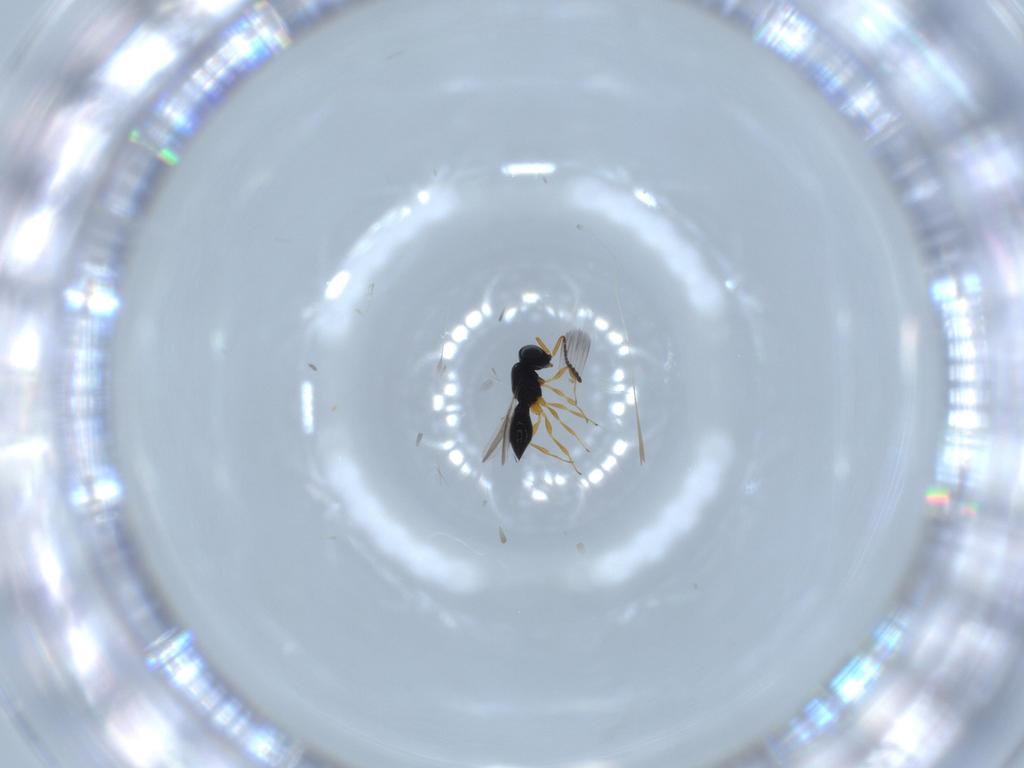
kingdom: Animalia
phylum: Arthropoda
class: Insecta
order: Hymenoptera
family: Scelionidae
